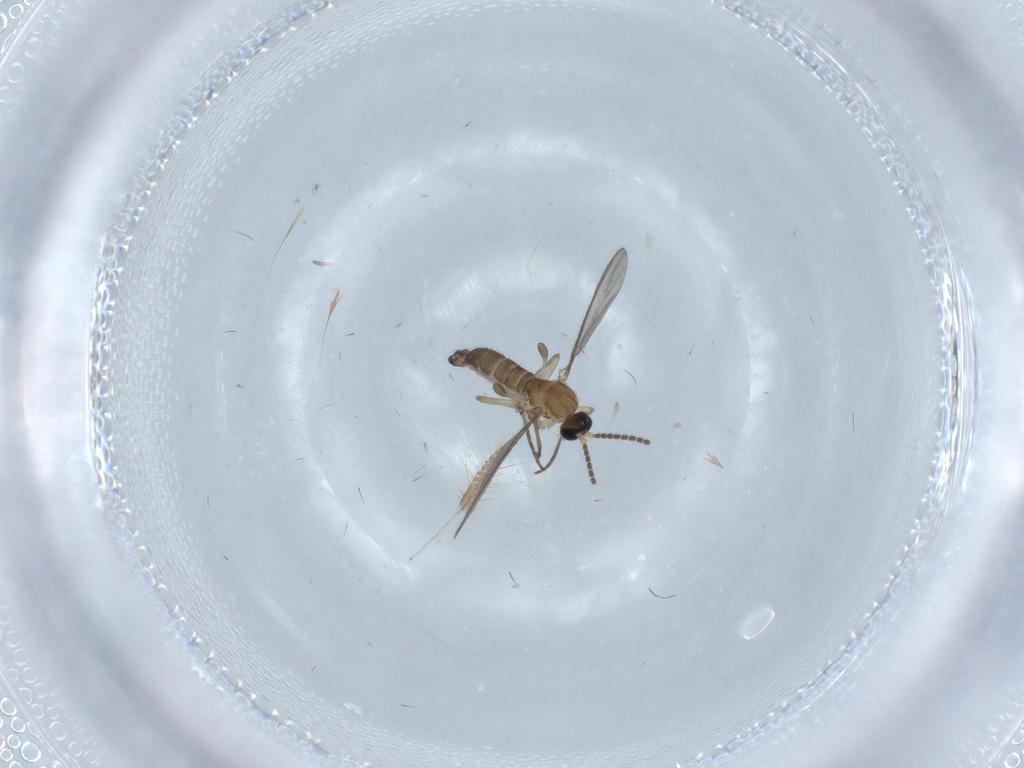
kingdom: Animalia
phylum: Arthropoda
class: Insecta
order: Diptera
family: Sciaridae
